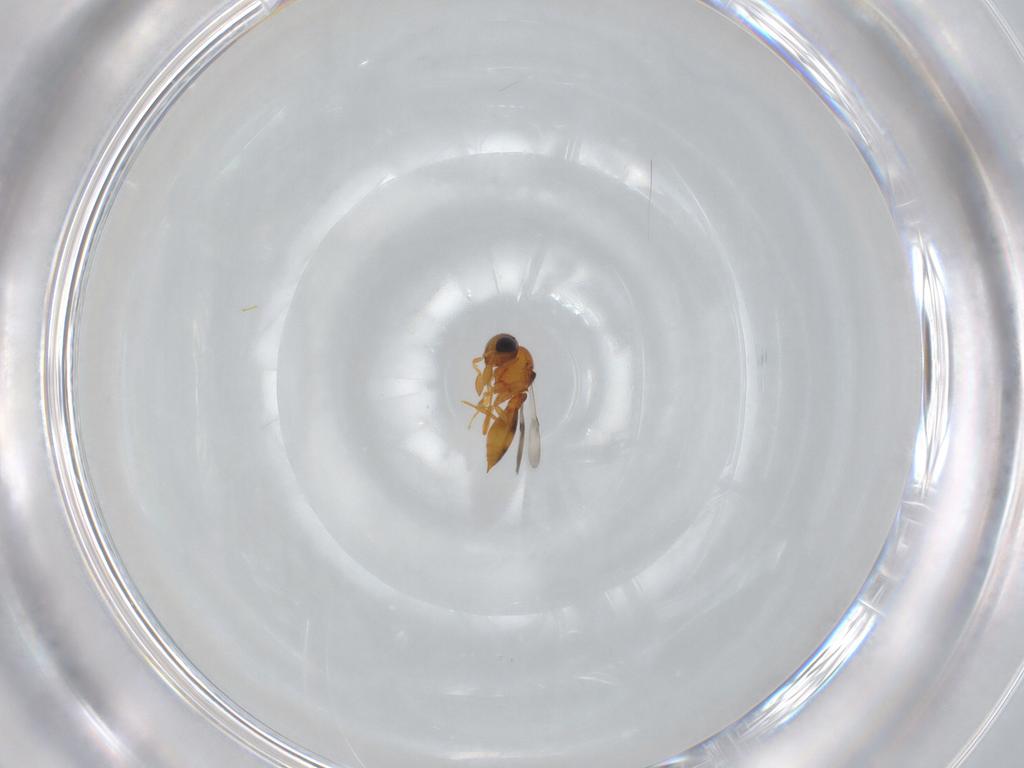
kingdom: Animalia
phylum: Arthropoda
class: Insecta
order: Hymenoptera
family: Scelionidae
